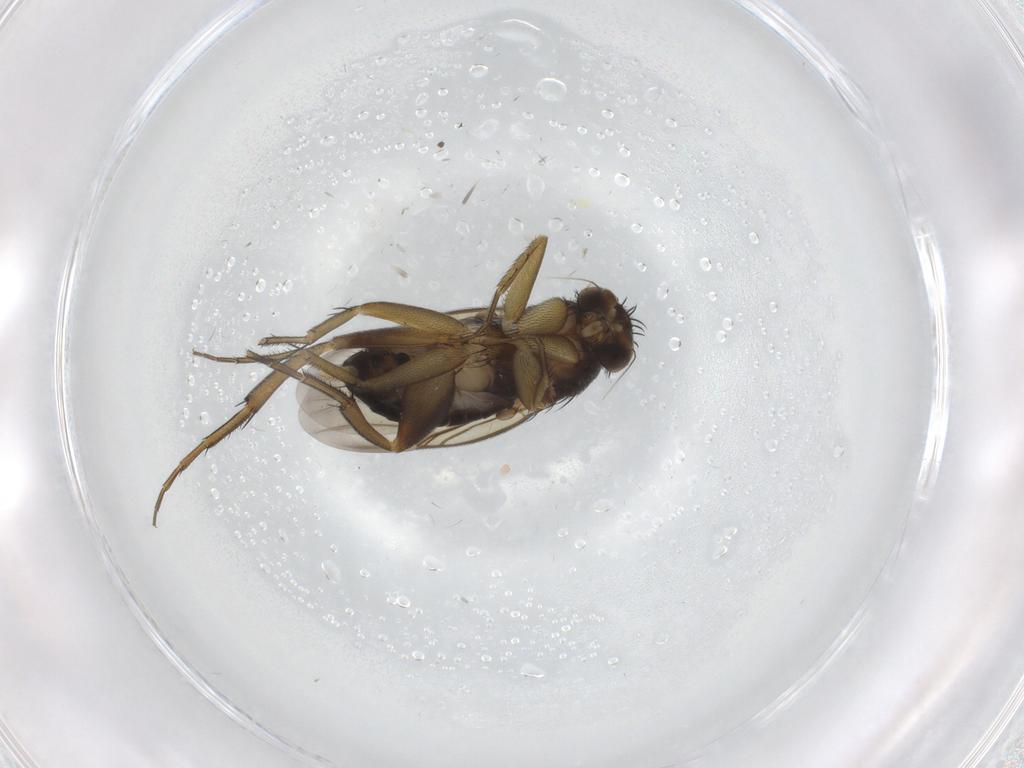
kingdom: Animalia
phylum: Arthropoda
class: Insecta
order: Diptera
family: Phoridae
